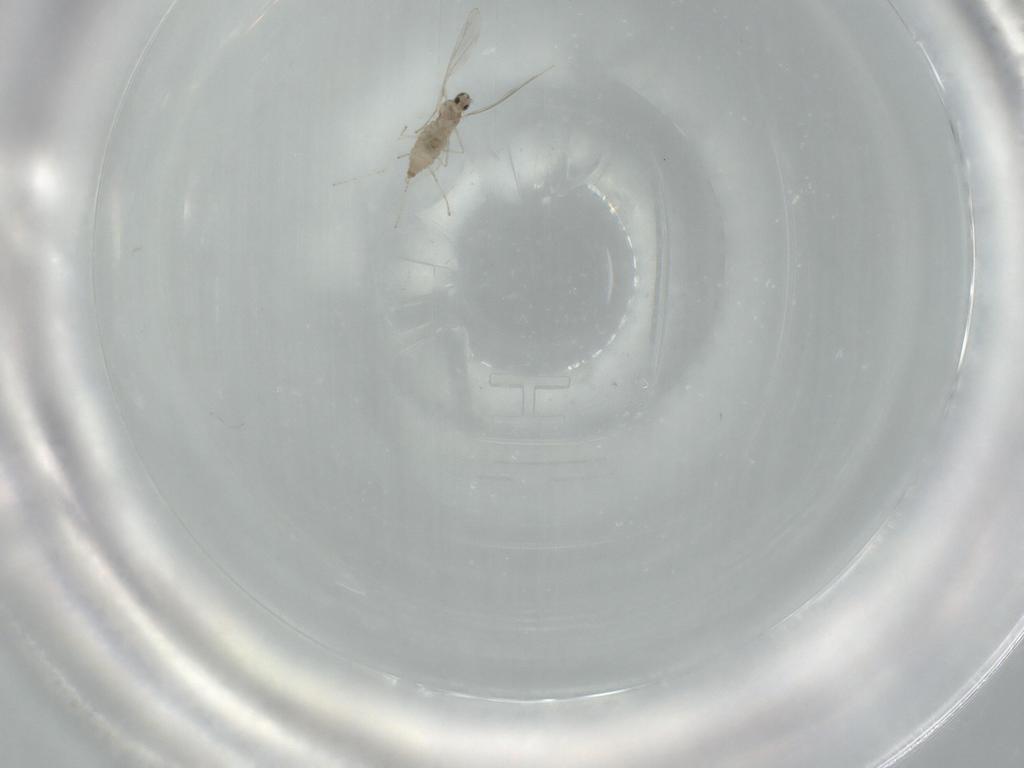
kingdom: Animalia
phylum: Arthropoda
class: Insecta
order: Diptera
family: Cecidomyiidae
